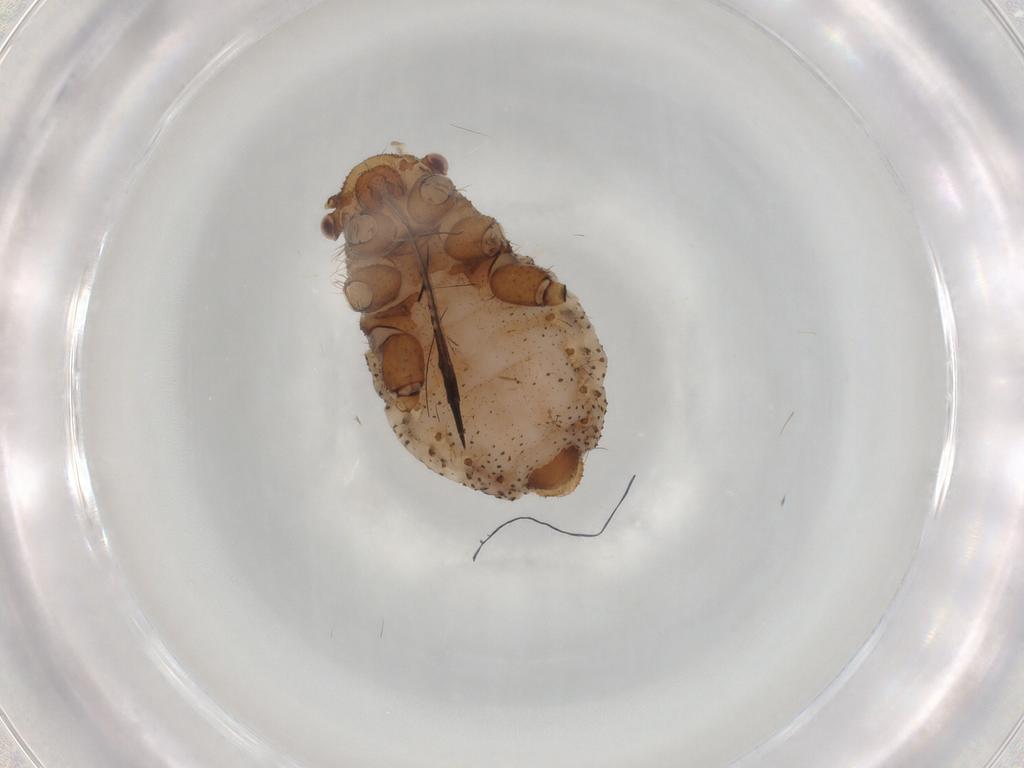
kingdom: Animalia
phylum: Arthropoda
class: Insecta
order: Hemiptera
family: Aphididae
